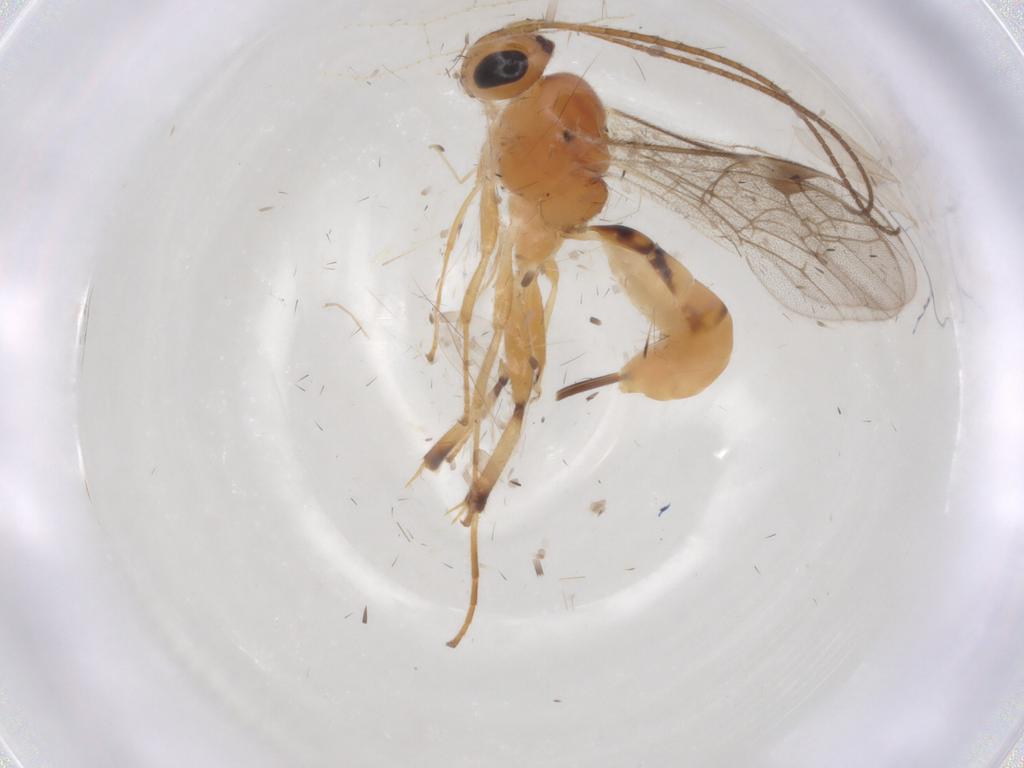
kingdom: Animalia
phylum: Arthropoda
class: Insecta
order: Hymenoptera
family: Ichneumonidae
